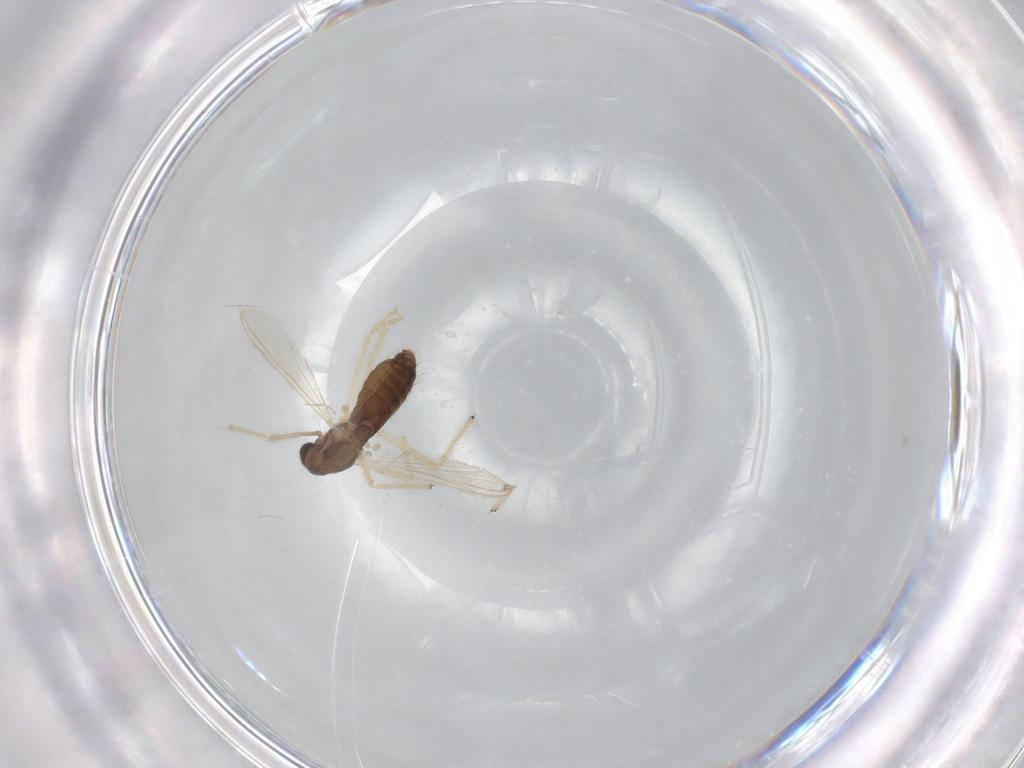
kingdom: Animalia
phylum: Arthropoda
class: Insecta
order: Diptera
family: Chironomidae
